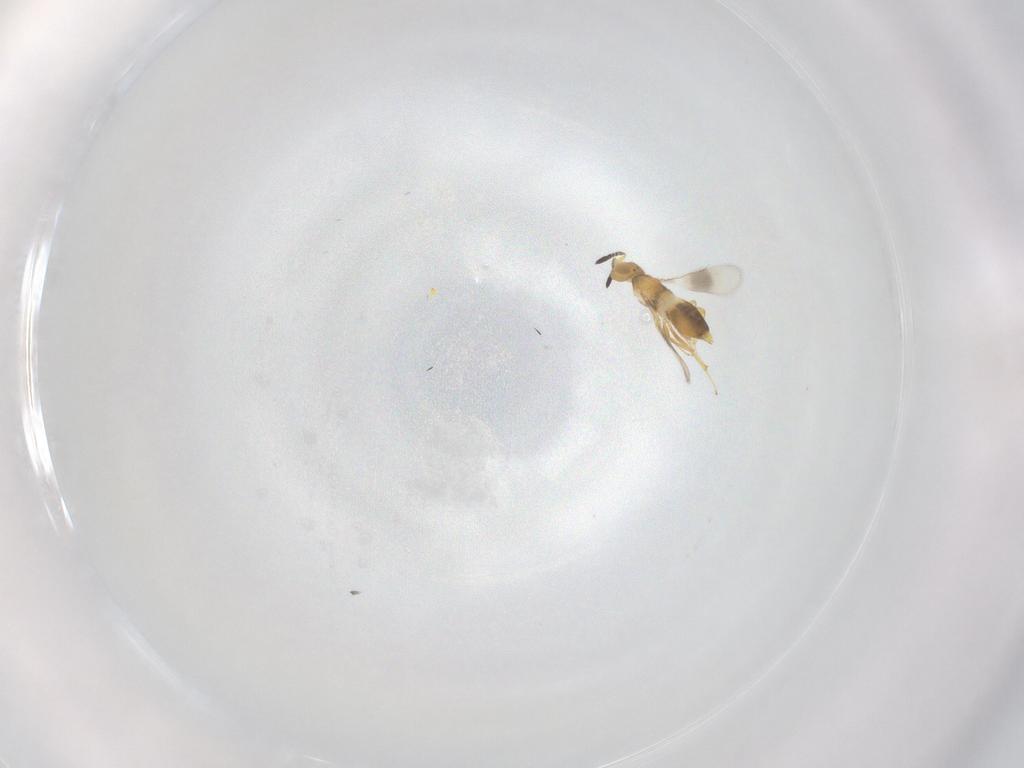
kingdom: Animalia
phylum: Arthropoda
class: Insecta
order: Hymenoptera
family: Encyrtidae
